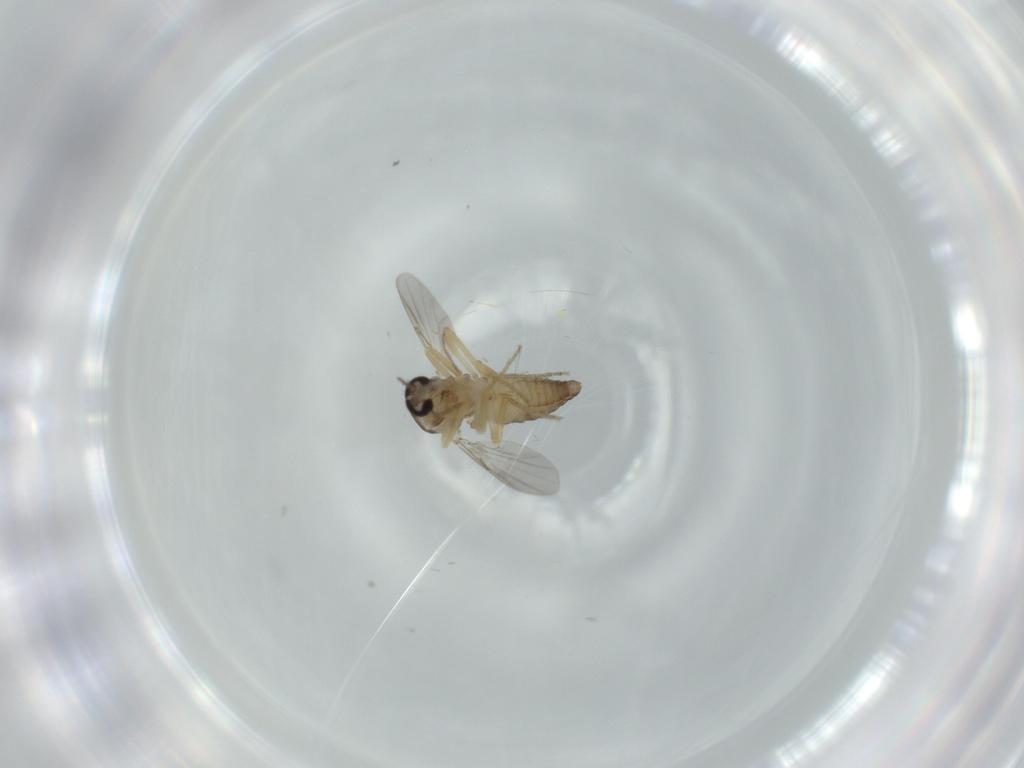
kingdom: Animalia
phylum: Arthropoda
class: Insecta
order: Diptera
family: Ceratopogonidae
